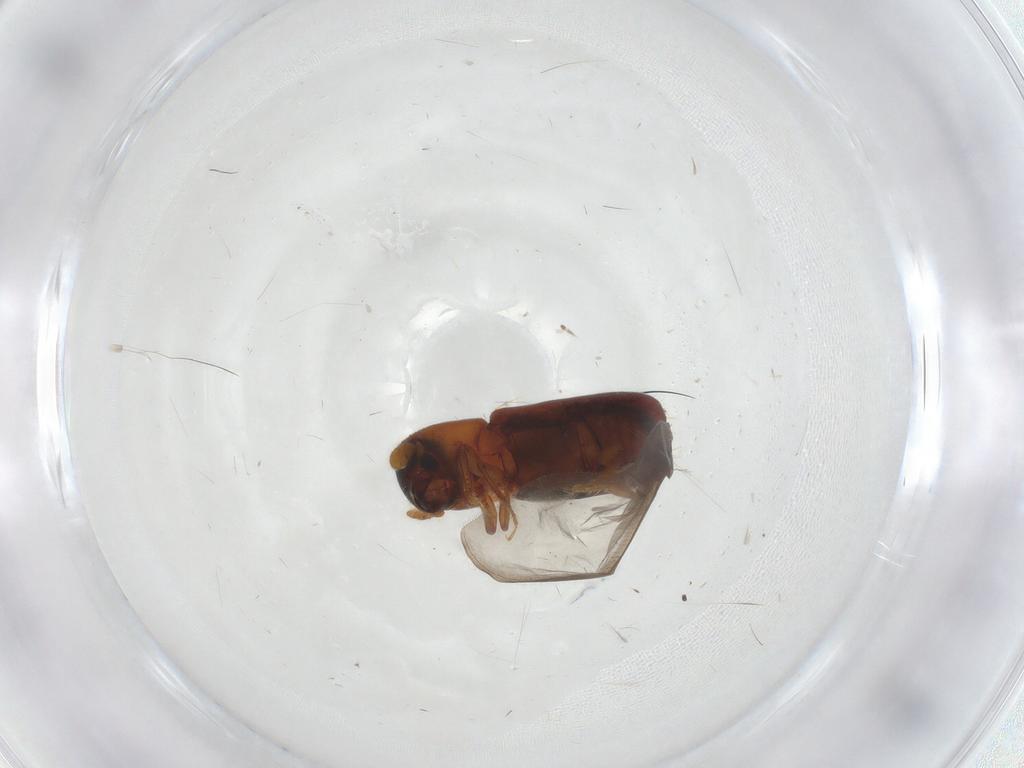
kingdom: Animalia
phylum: Arthropoda
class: Insecta
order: Coleoptera
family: Curculionidae
